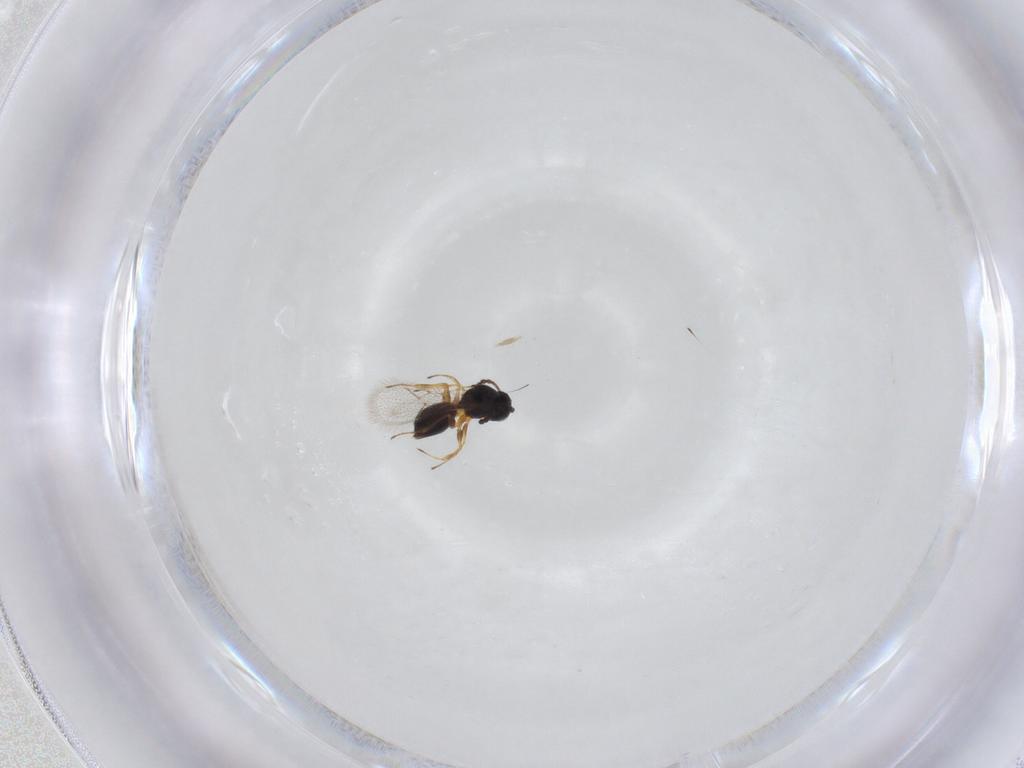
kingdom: Animalia
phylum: Arthropoda
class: Insecta
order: Hymenoptera
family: Figitidae
